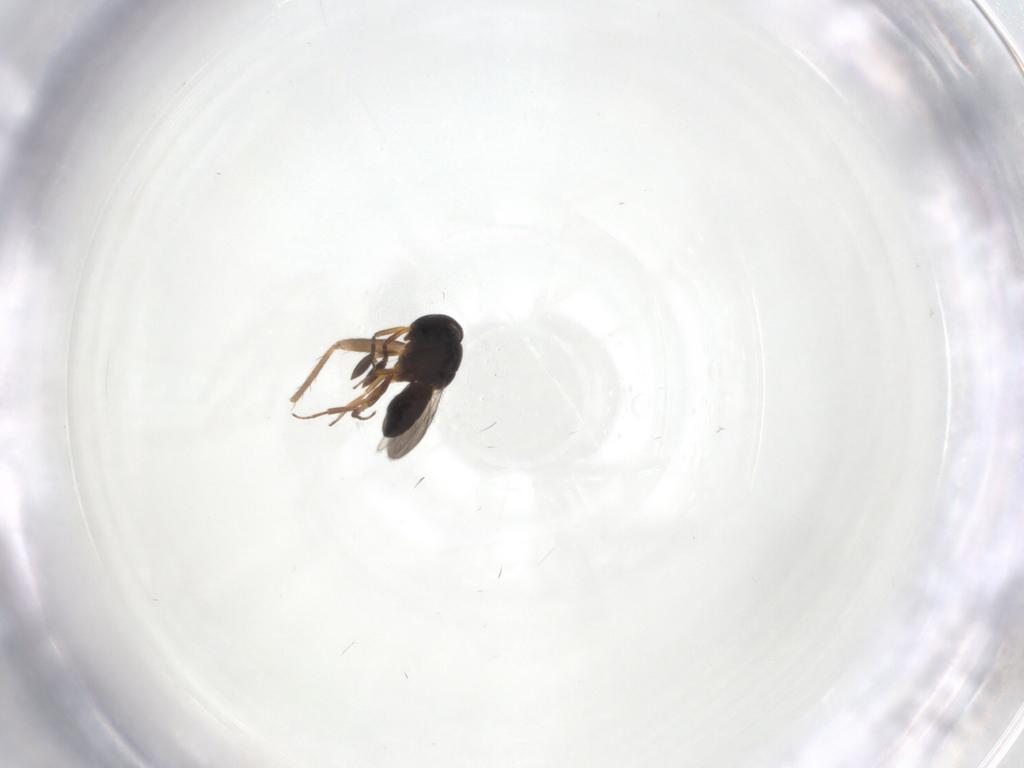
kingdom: Animalia
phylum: Arthropoda
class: Insecta
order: Hymenoptera
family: Scelionidae
